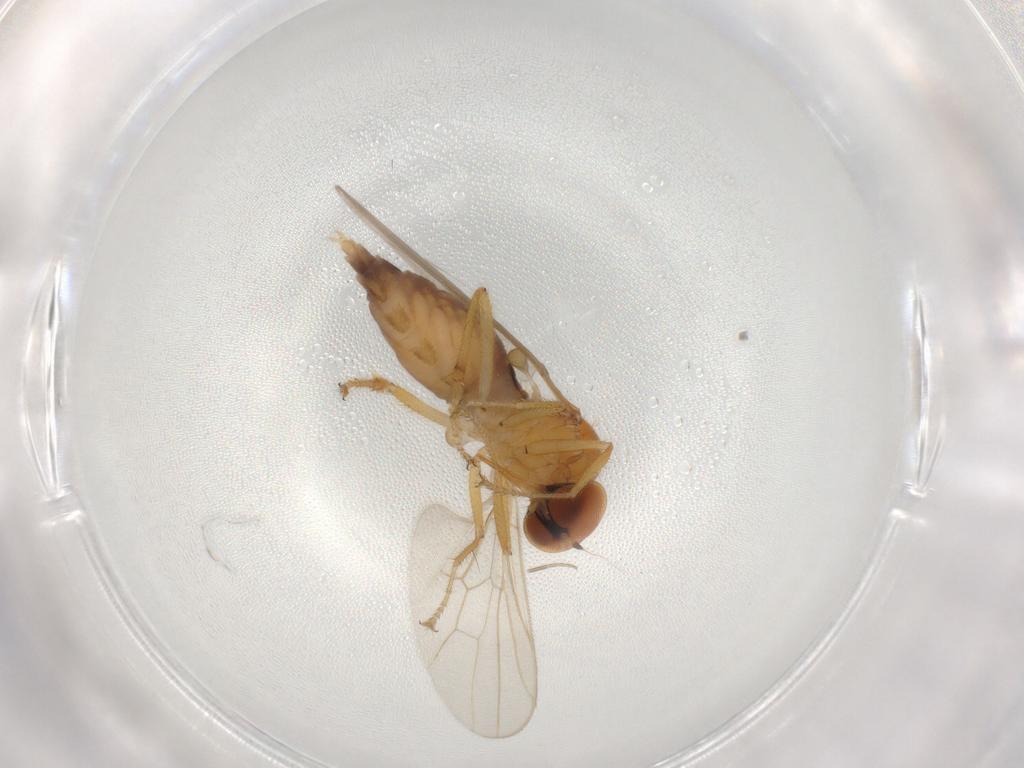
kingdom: Animalia
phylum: Arthropoda
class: Insecta
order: Diptera
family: Hybotidae
